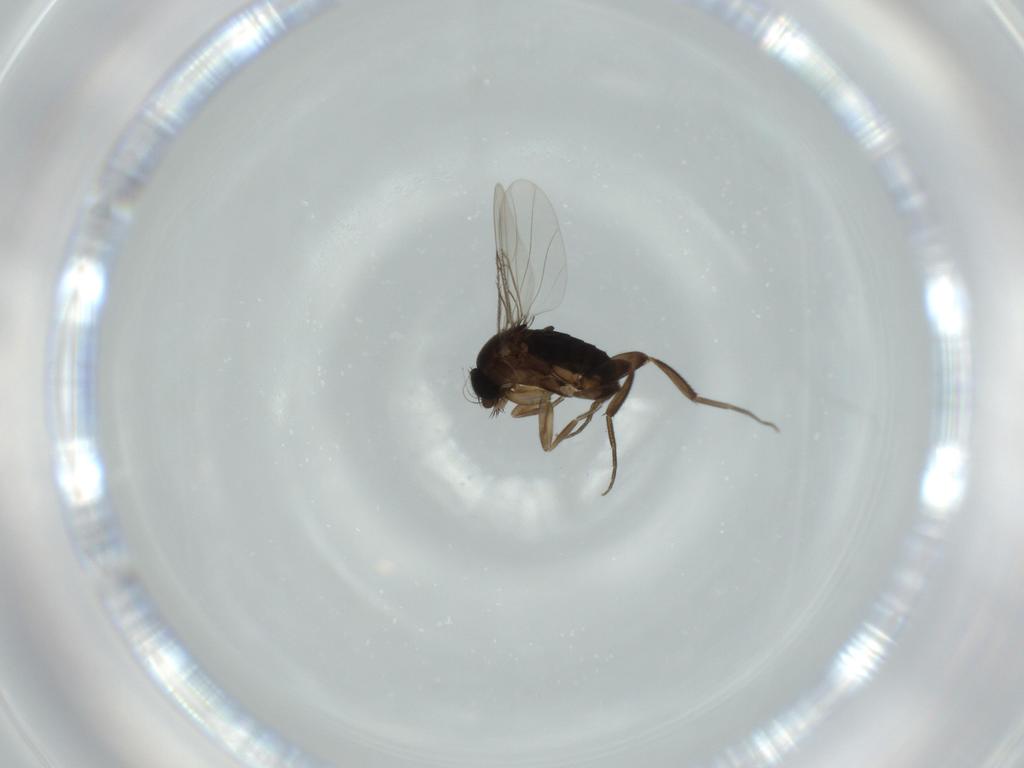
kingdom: Animalia
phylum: Arthropoda
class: Insecta
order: Diptera
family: Phoridae
